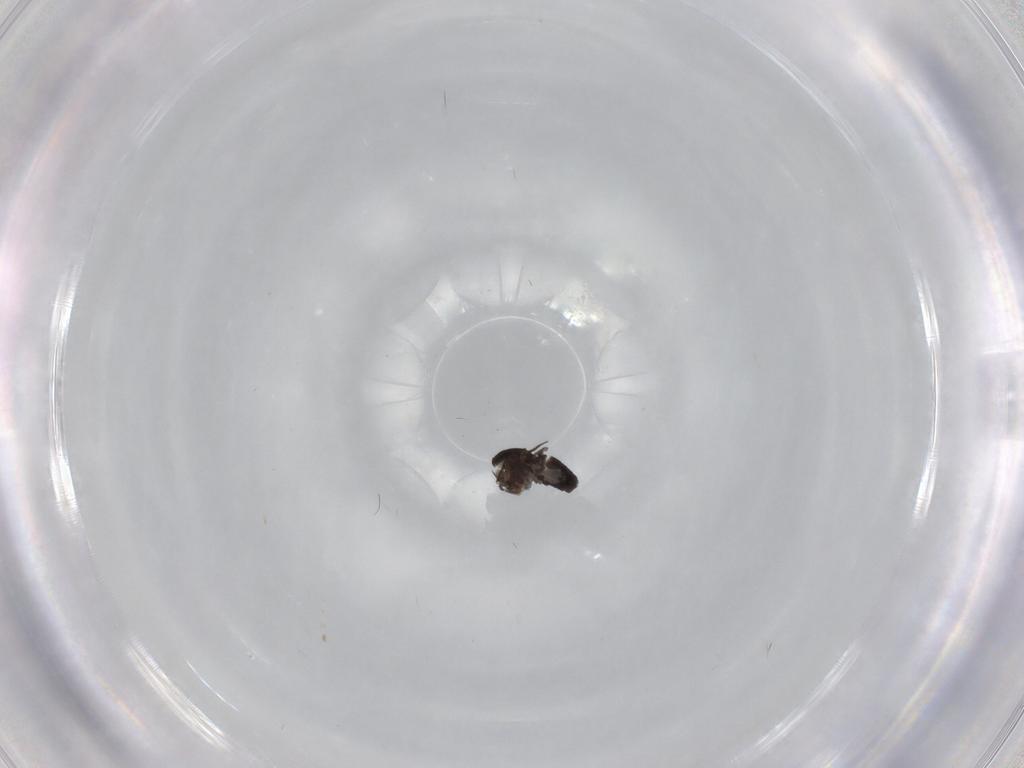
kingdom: Animalia
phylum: Arthropoda
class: Insecta
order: Diptera
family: Dolichopodidae
